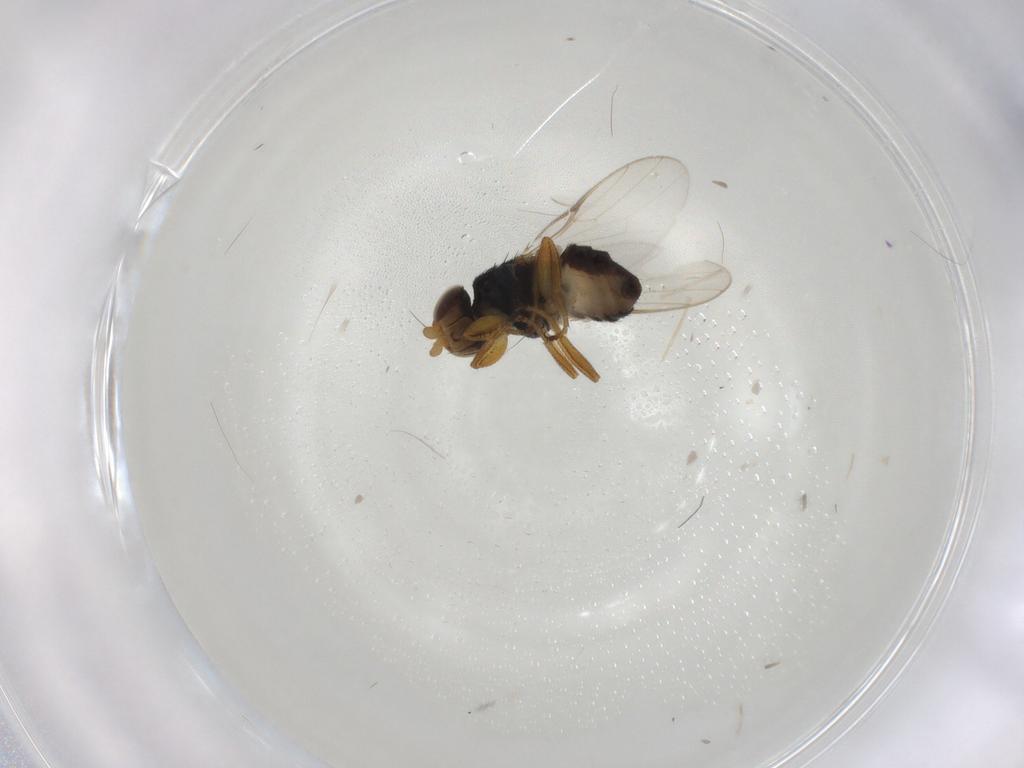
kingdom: Animalia
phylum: Arthropoda
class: Insecta
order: Diptera
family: Chloropidae
